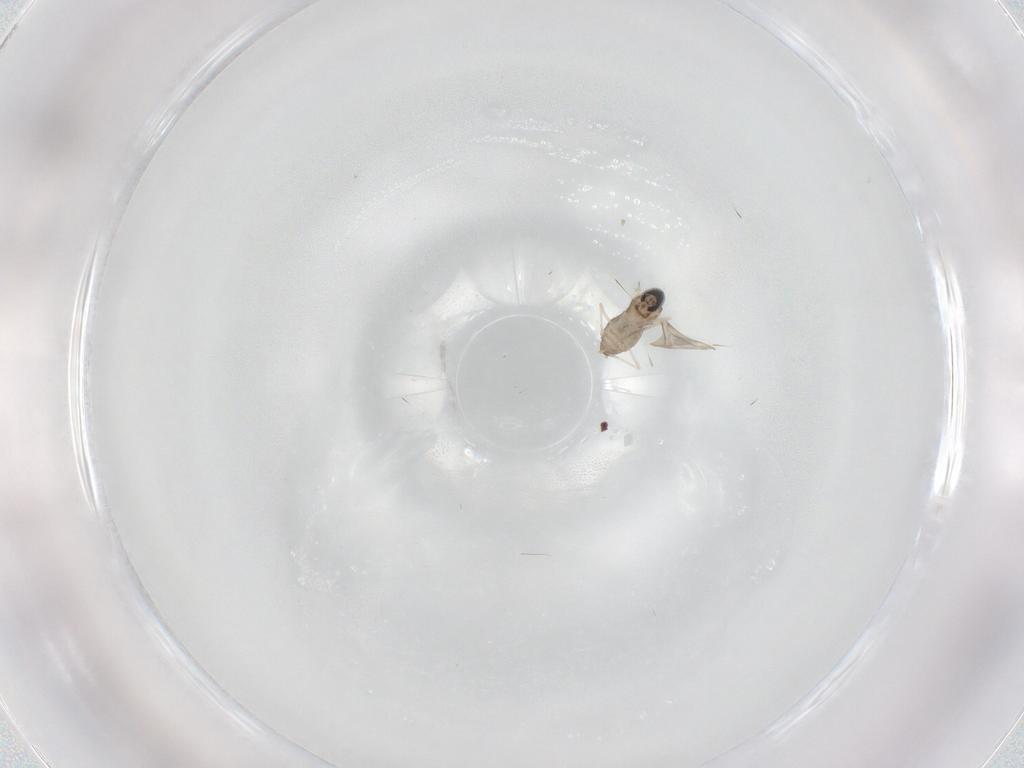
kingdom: Animalia
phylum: Arthropoda
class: Insecta
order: Diptera
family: Cecidomyiidae
